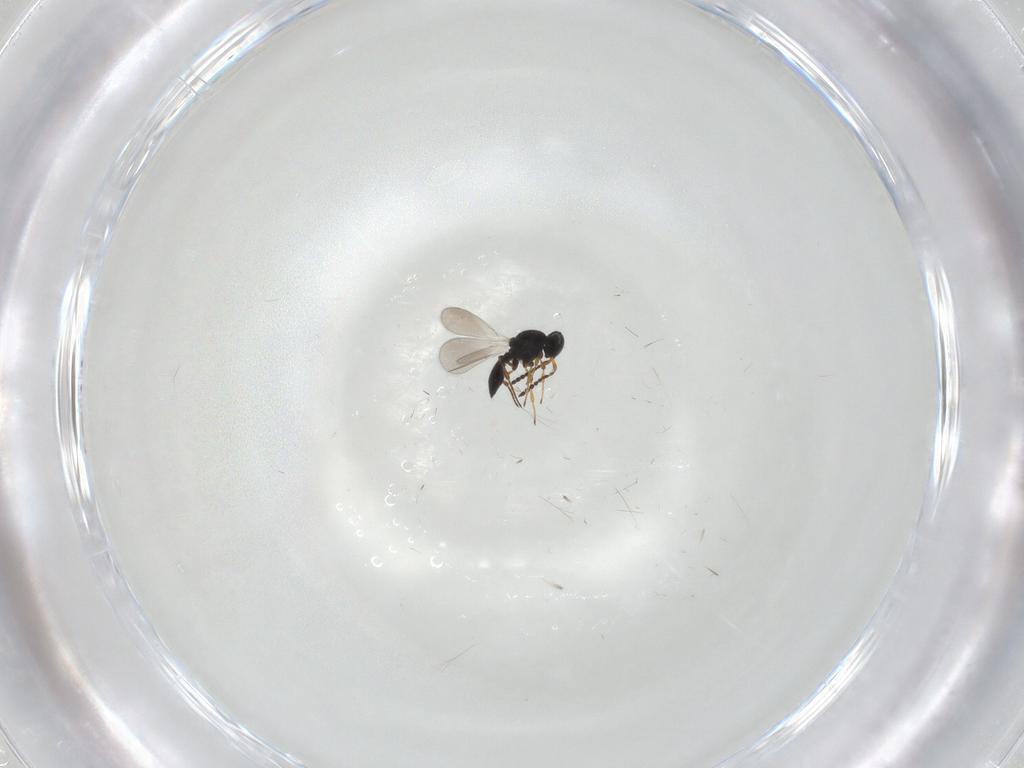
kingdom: Animalia
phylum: Arthropoda
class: Insecta
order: Hymenoptera
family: Platygastridae
